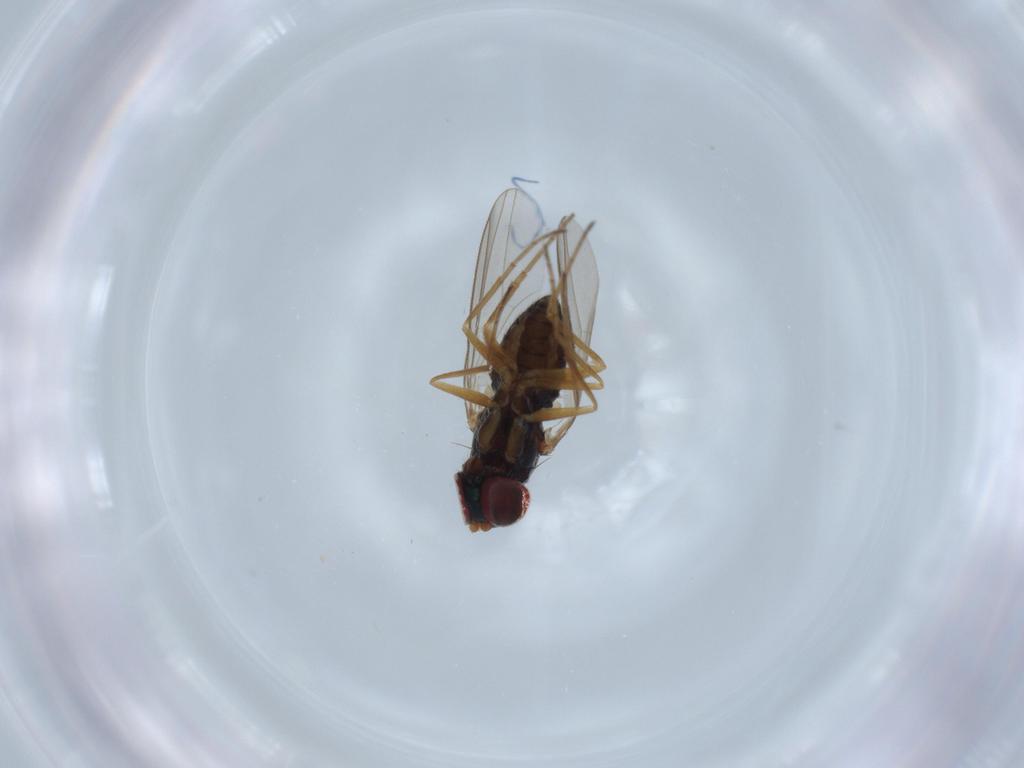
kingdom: Animalia
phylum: Arthropoda
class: Insecta
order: Diptera
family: Dolichopodidae
